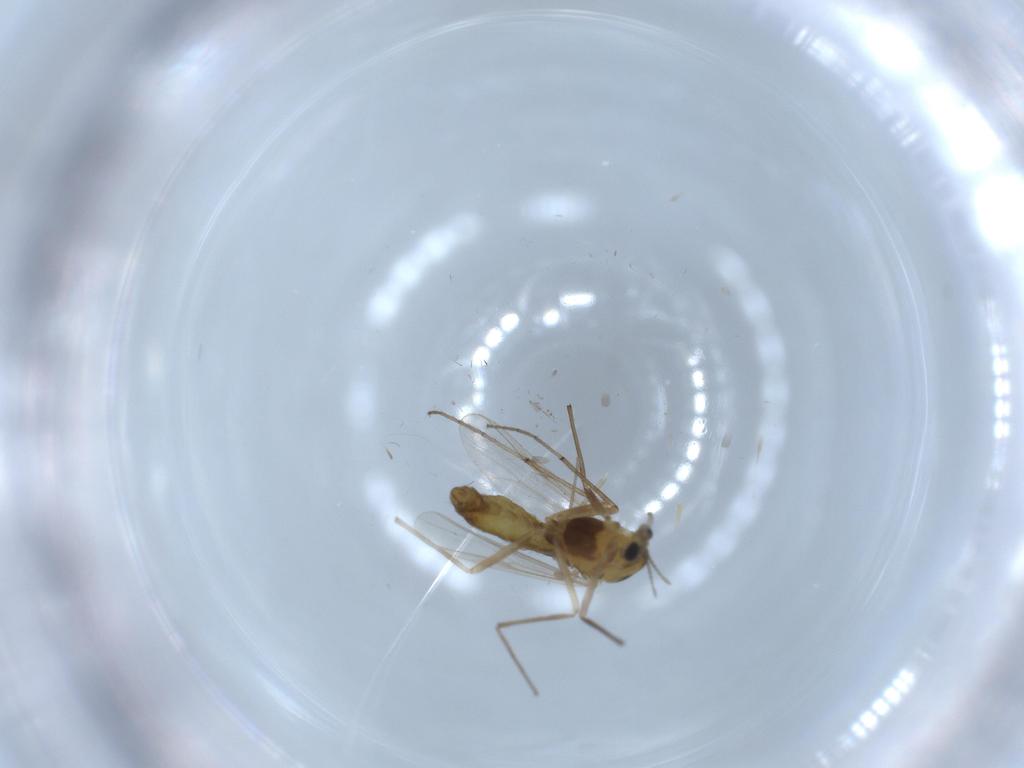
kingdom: Animalia
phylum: Arthropoda
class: Insecta
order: Diptera
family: Chironomidae
